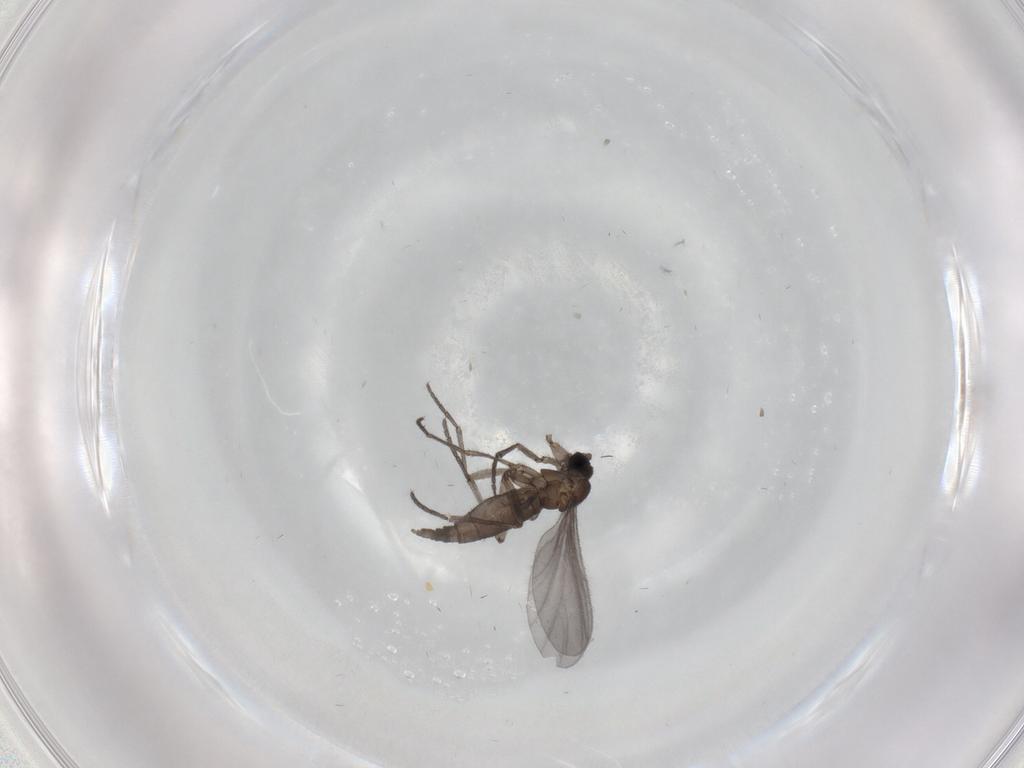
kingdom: Animalia
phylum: Arthropoda
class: Insecta
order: Diptera
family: Sciaridae
